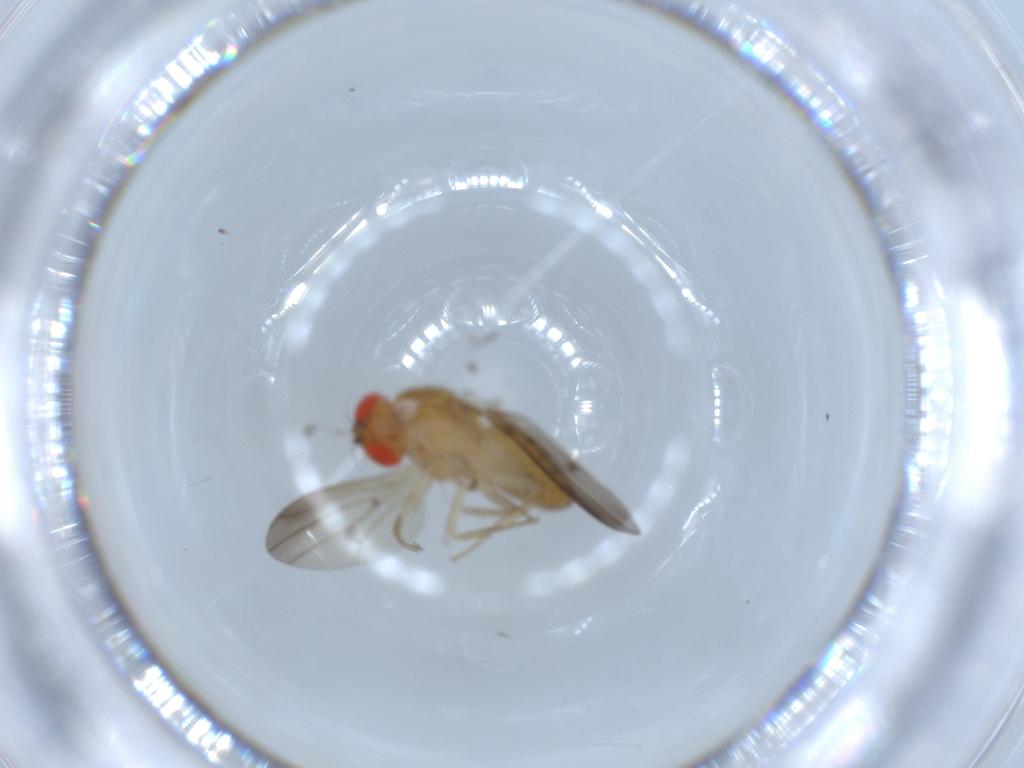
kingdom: Animalia
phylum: Arthropoda
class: Insecta
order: Diptera
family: Drosophilidae
